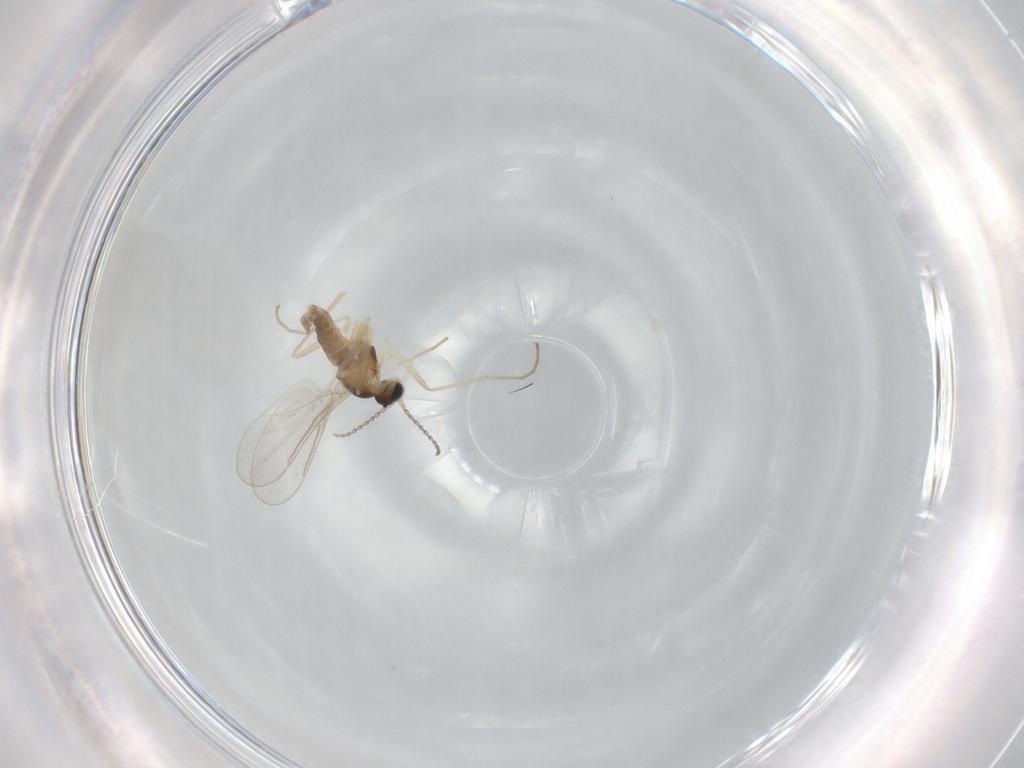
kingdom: Animalia
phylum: Arthropoda
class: Insecta
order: Diptera
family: Cecidomyiidae
